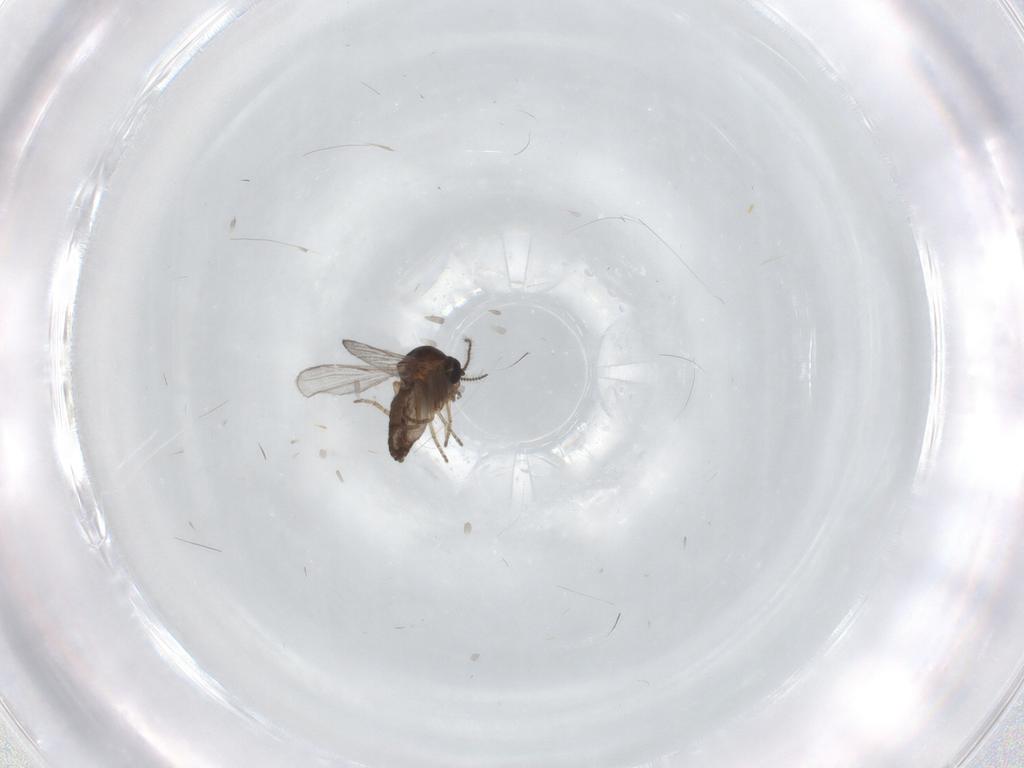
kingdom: Animalia
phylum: Arthropoda
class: Insecta
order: Diptera
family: Ceratopogonidae
